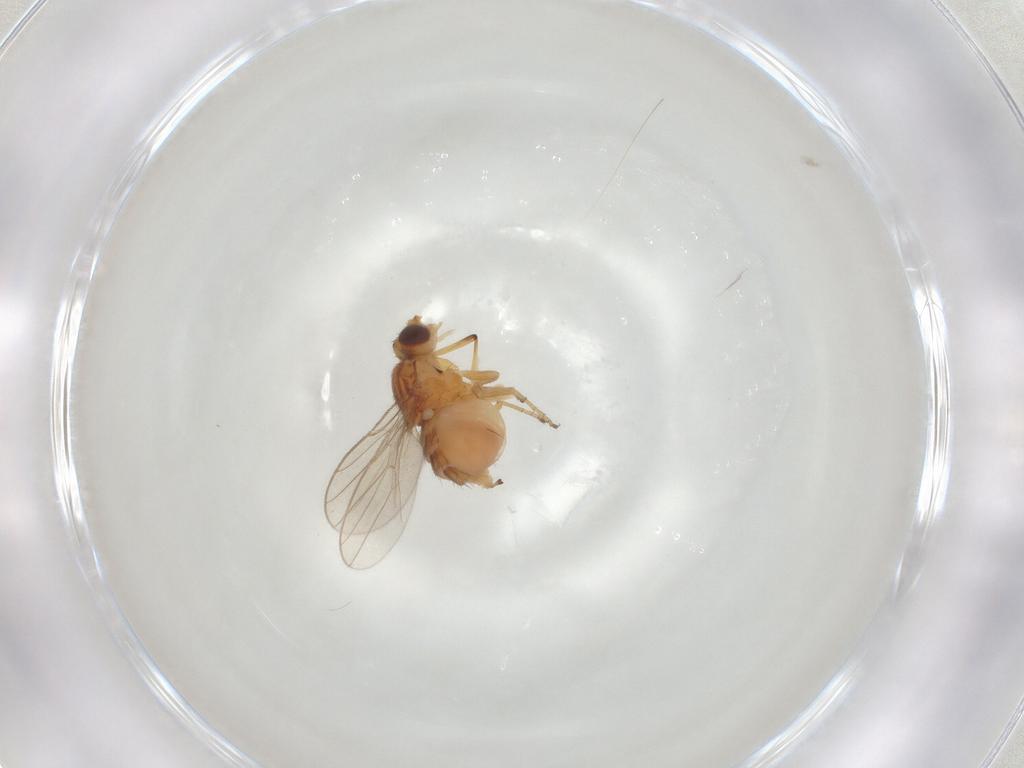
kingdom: Animalia
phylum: Arthropoda
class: Insecta
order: Diptera
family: Chloropidae
